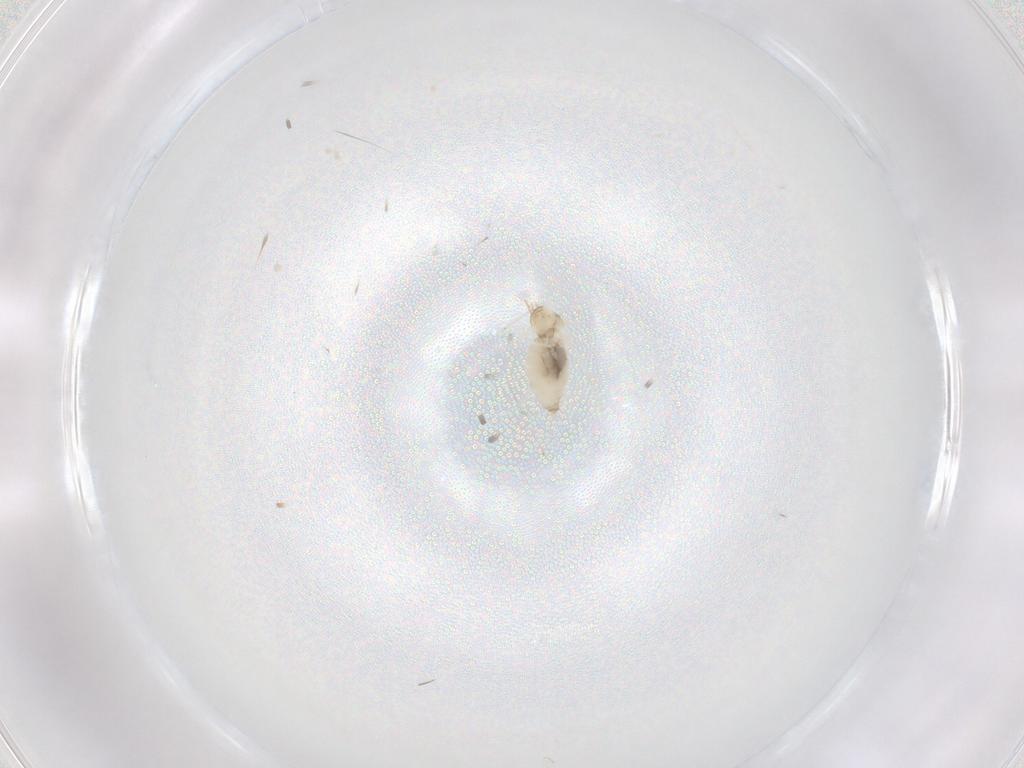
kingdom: Animalia
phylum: Arthropoda
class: Insecta
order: Diptera
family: Cecidomyiidae
